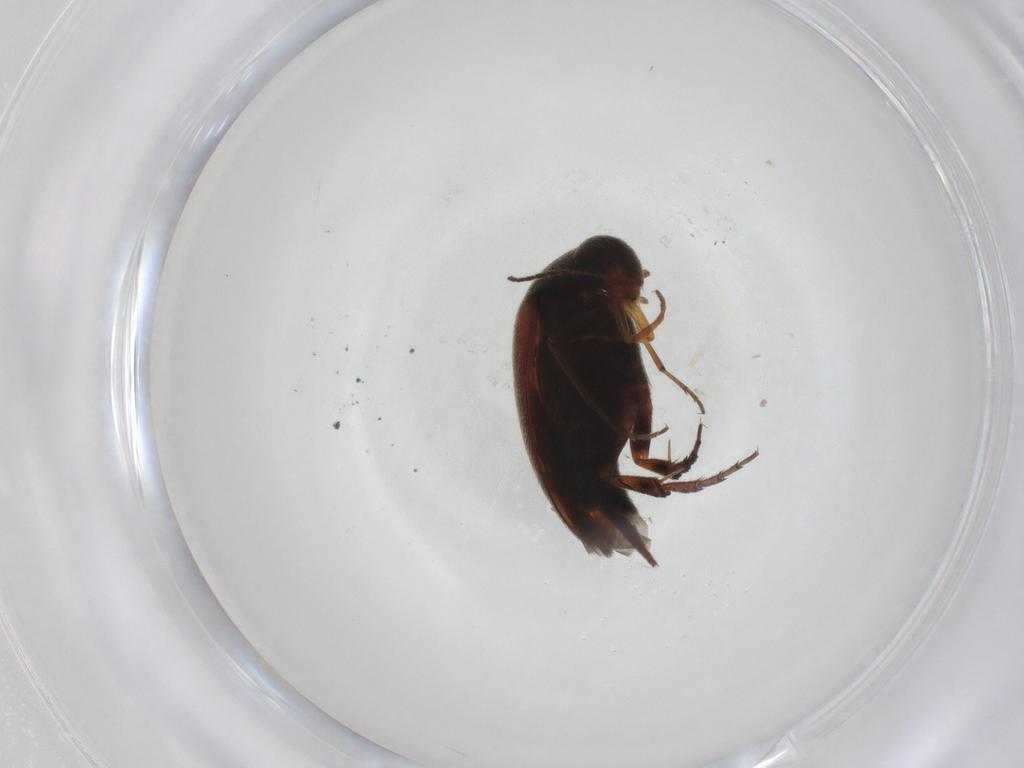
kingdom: Animalia
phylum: Arthropoda
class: Insecta
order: Coleoptera
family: Mordellidae
